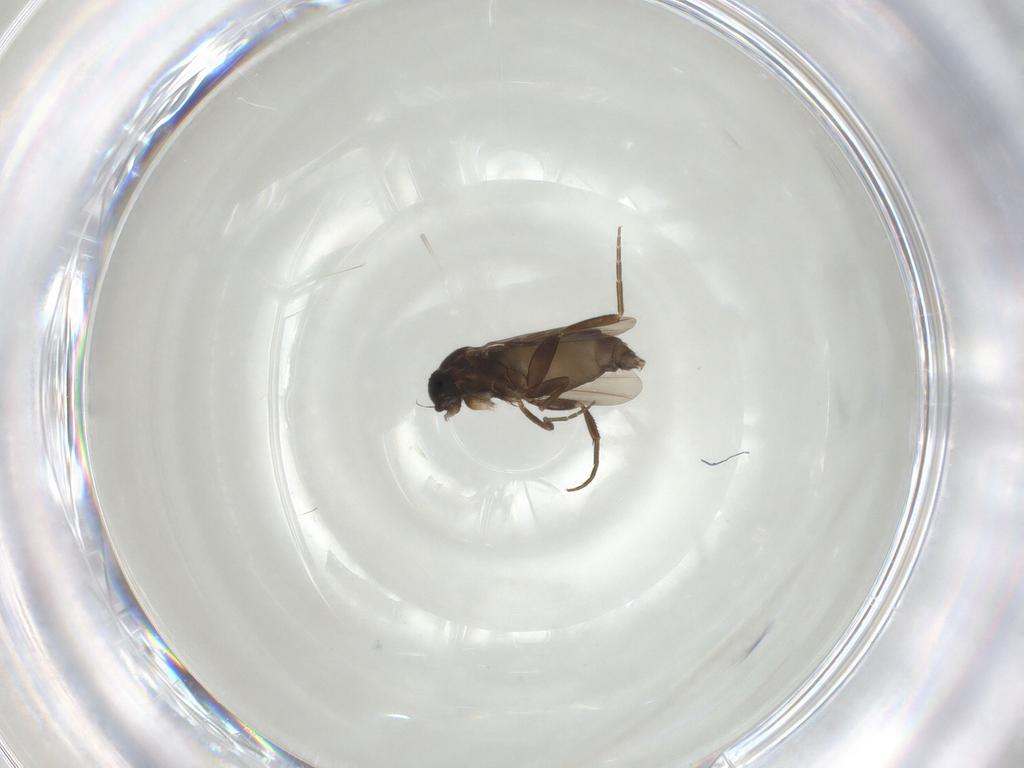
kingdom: Animalia
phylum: Arthropoda
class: Insecta
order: Diptera
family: Phoridae
